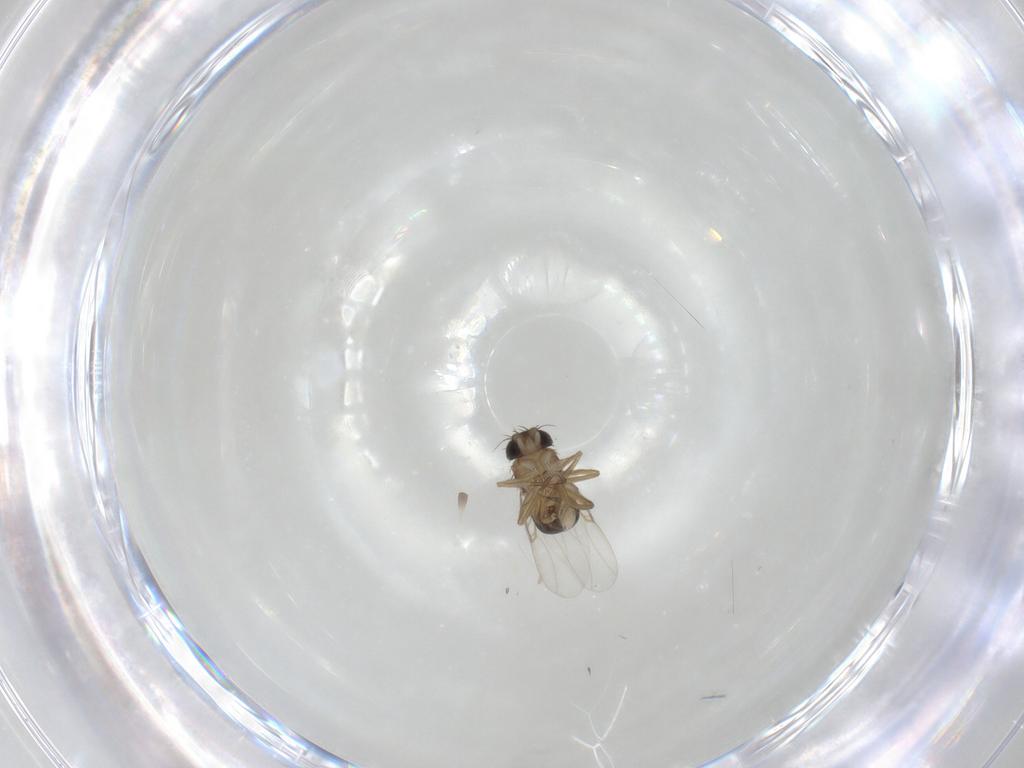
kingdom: Animalia
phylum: Arthropoda
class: Insecta
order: Diptera
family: Phoridae
